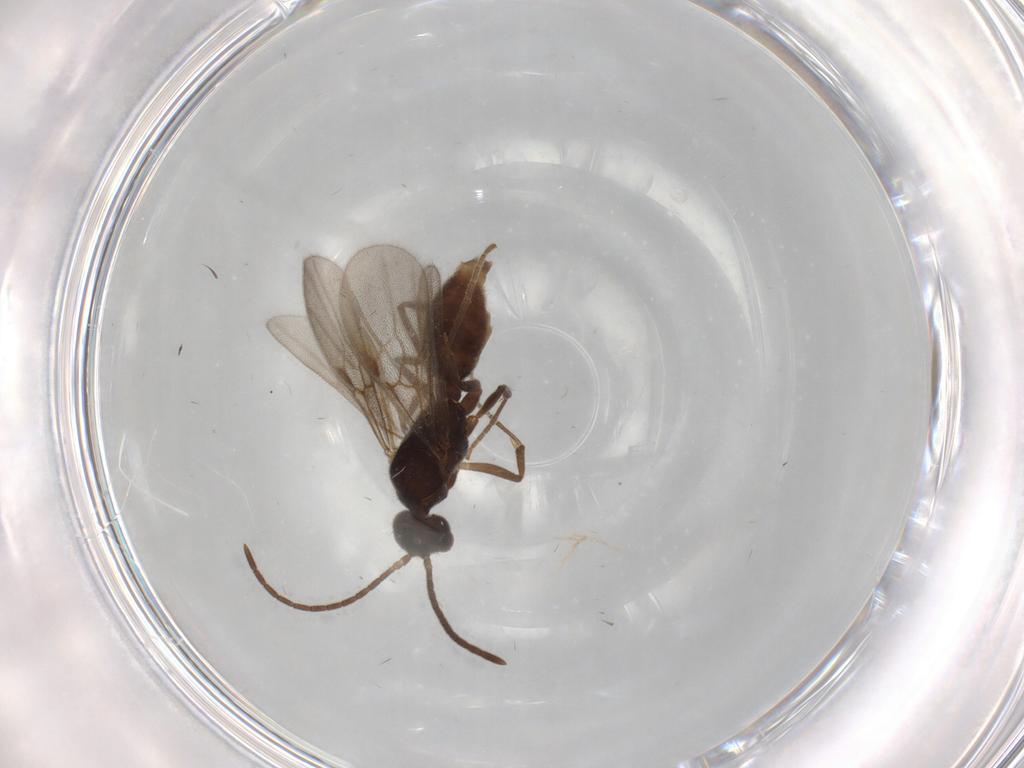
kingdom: Animalia
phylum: Arthropoda
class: Insecta
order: Hymenoptera
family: Formicidae
